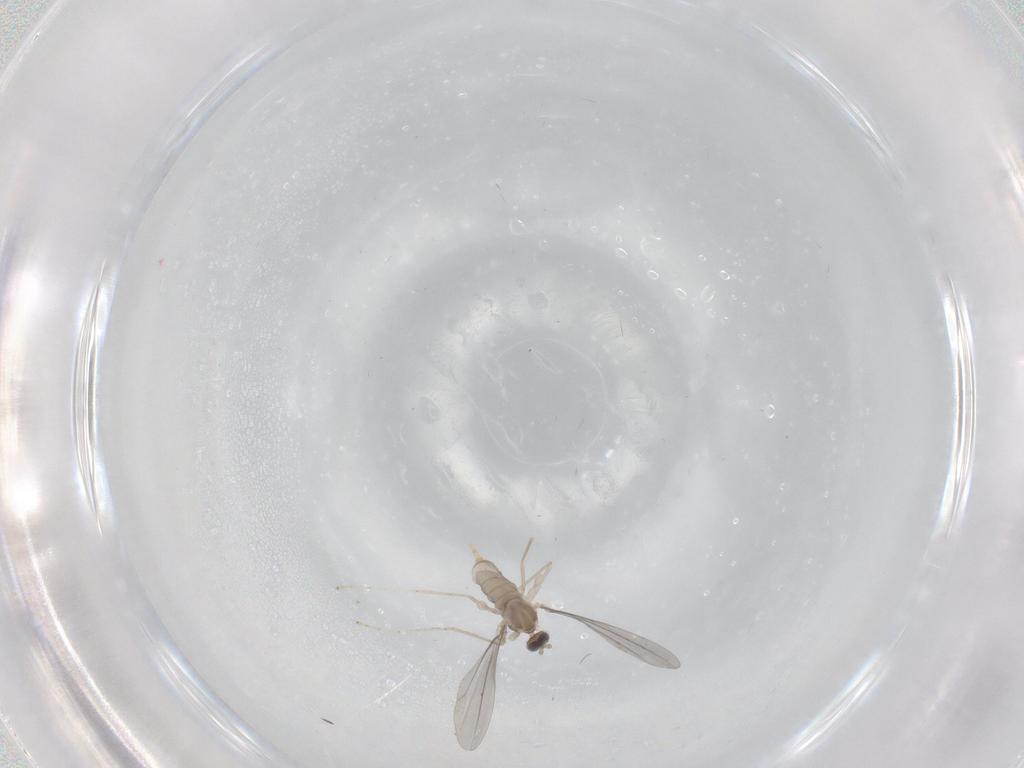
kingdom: Animalia
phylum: Arthropoda
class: Insecta
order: Diptera
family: Cecidomyiidae
